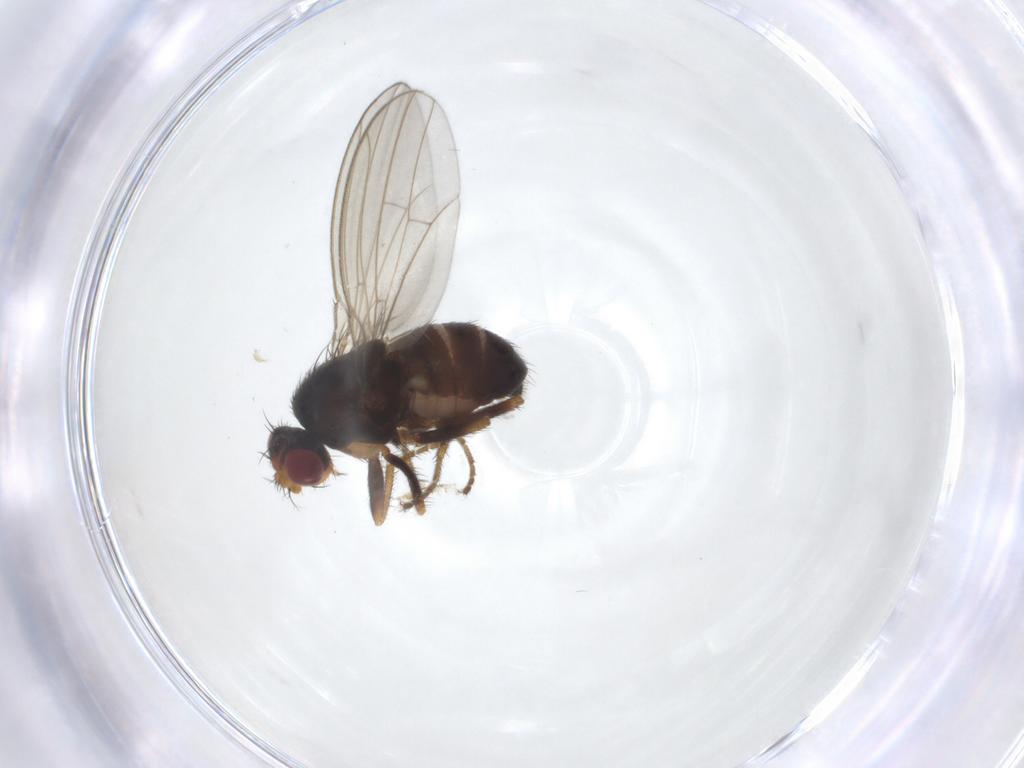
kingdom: Animalia
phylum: Arthropoda
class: Insecta
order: Diptera
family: Drosophilidae
